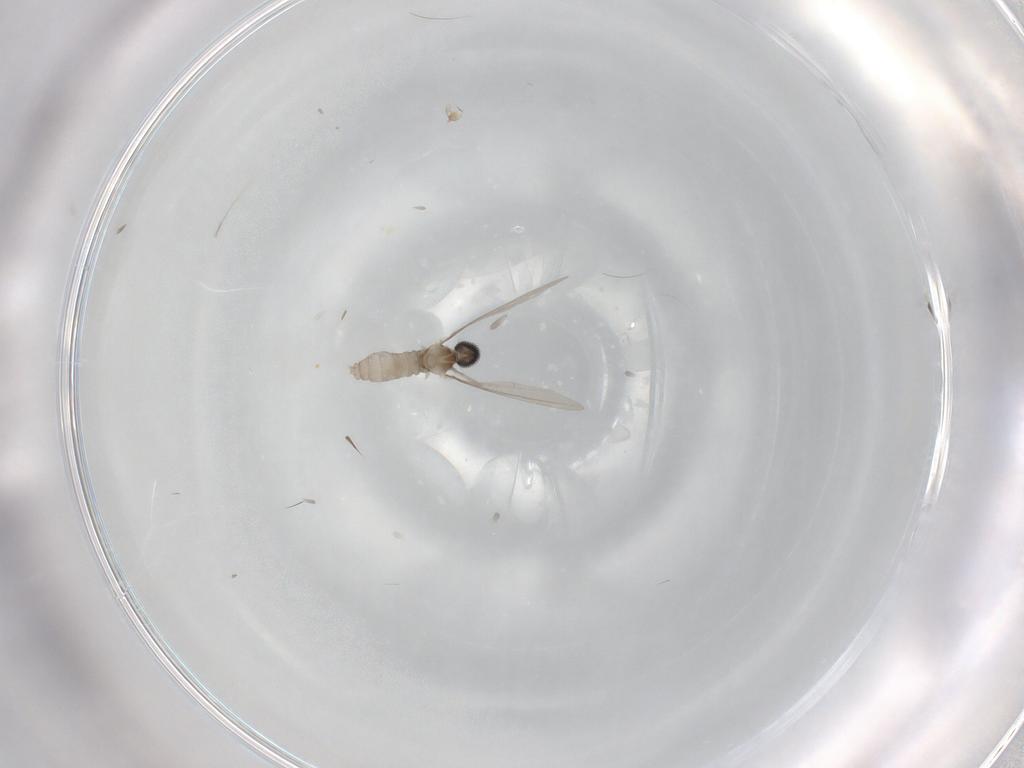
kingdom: Animalia
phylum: Arthropoda
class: Insecta
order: Diptera
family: Cecidomyiidae
